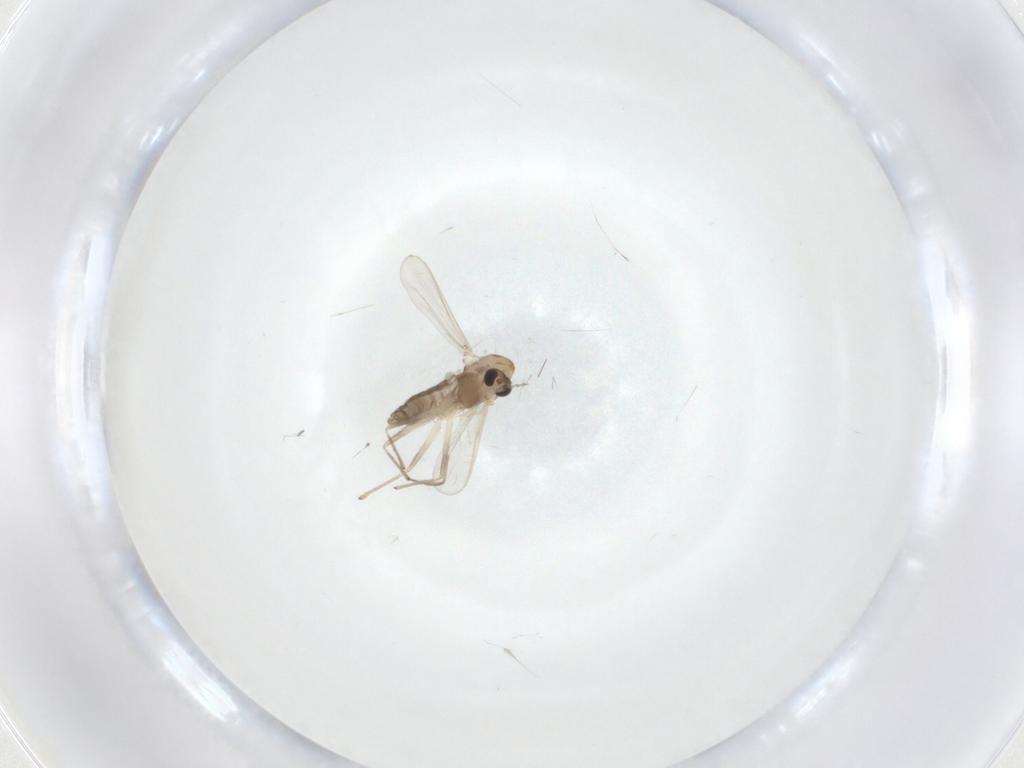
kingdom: Animalia
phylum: Arthropoda
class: Insecta
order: Diptera
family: Chironomidae
